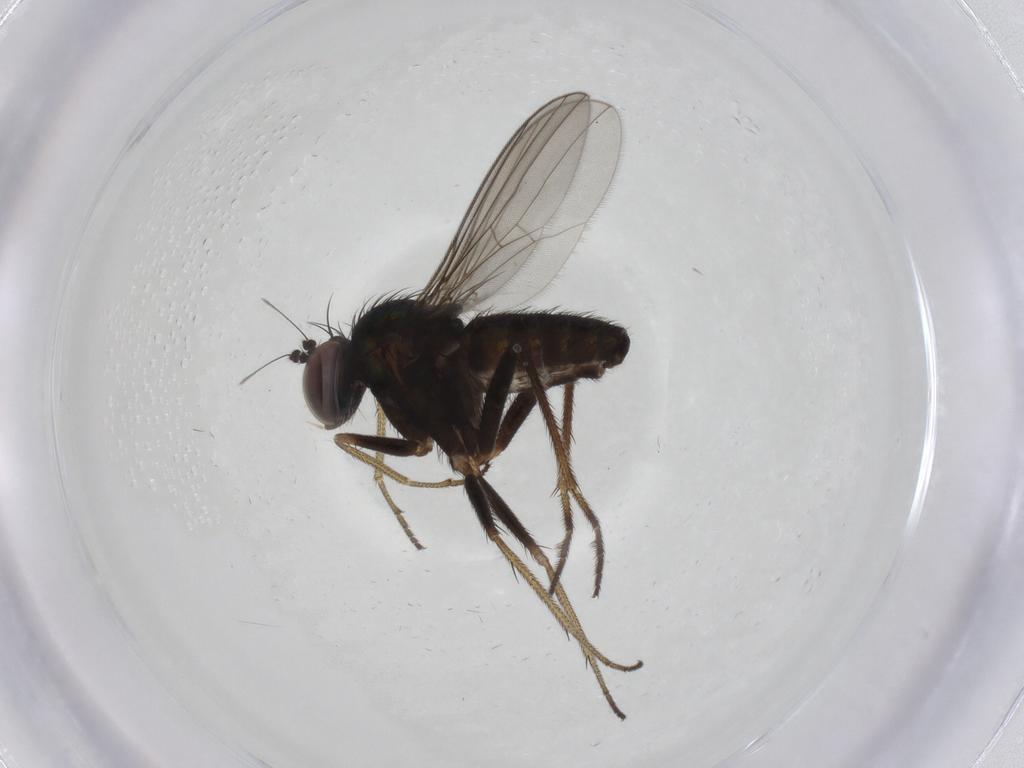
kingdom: Animalia
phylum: Arthropoda
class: Insecta
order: Diptera
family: Dolichopodidae
